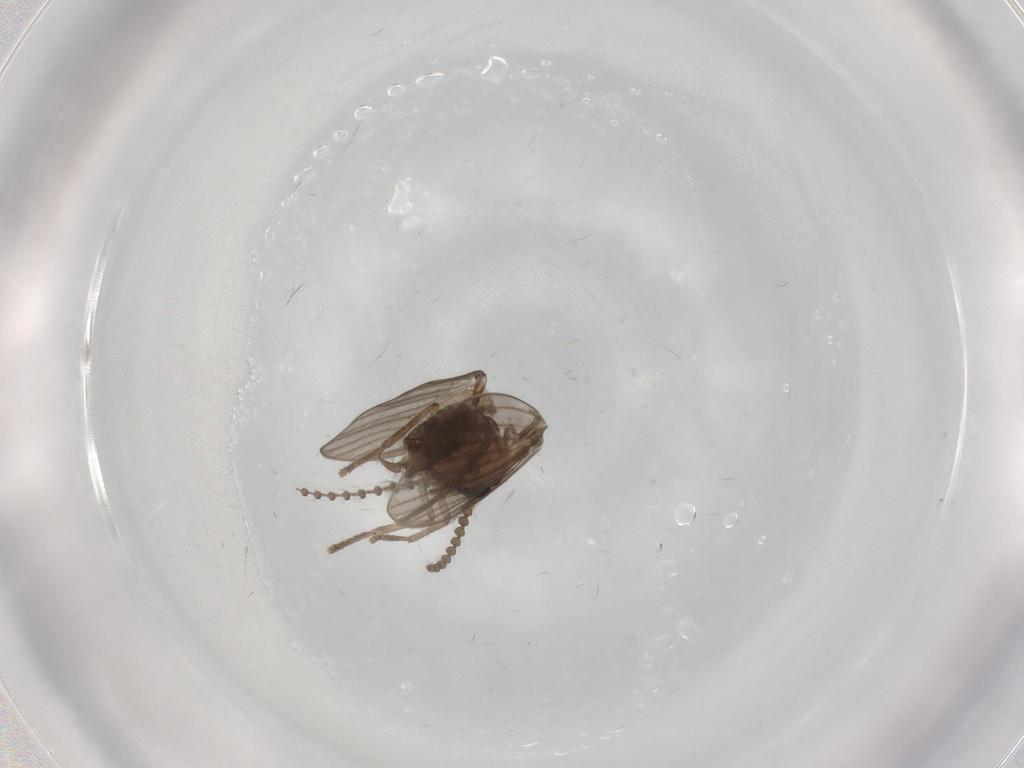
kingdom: Animalia
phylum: Arthropoda
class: Insecta
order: Diptera
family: Psychodidae
